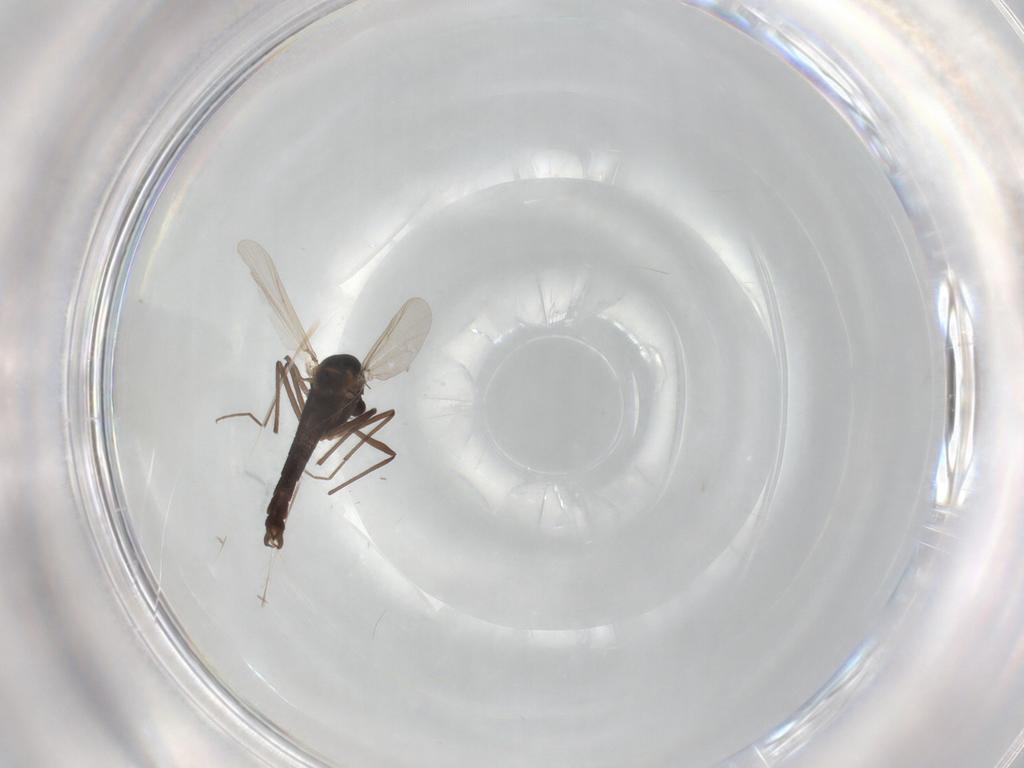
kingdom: Animalia
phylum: Arthropoda
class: Insecta
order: Diptera
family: Chironomidae
